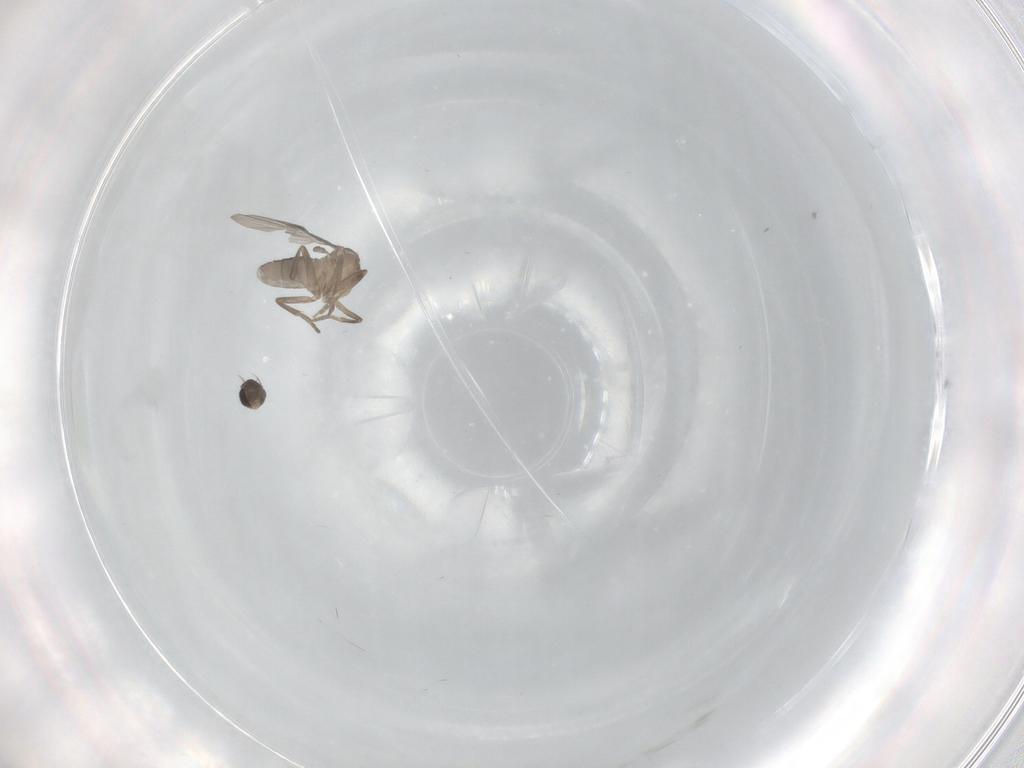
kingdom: Animalia
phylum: Arthropoda
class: Insecta
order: Diptera
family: Phoridae
